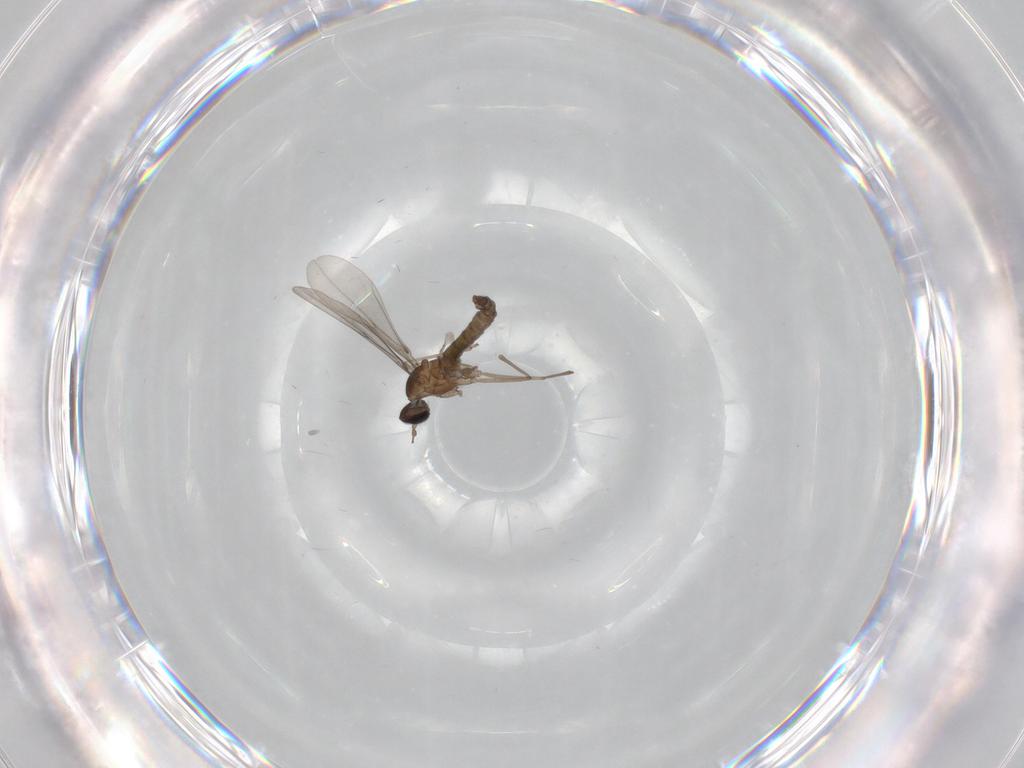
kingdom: Animalia
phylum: Arthropoda
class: Insecta
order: Diptera
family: Cecidomyiidae
